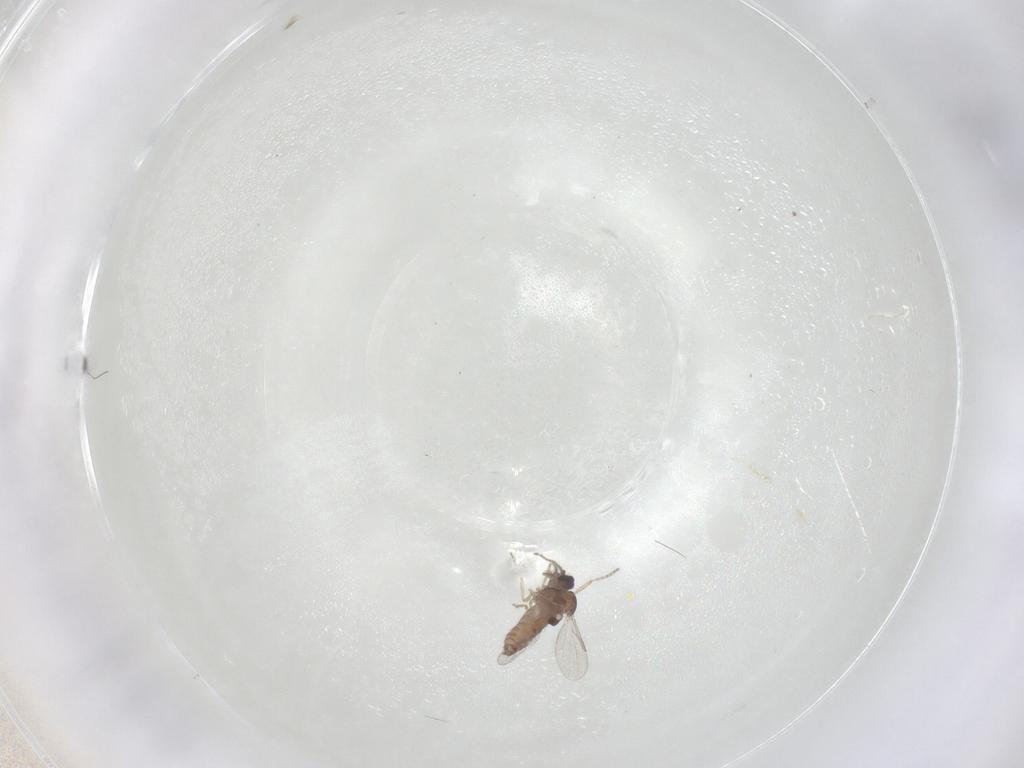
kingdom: Animalia
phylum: Arthropoda
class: Insecta
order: Diptera
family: Ceratopogonidae
